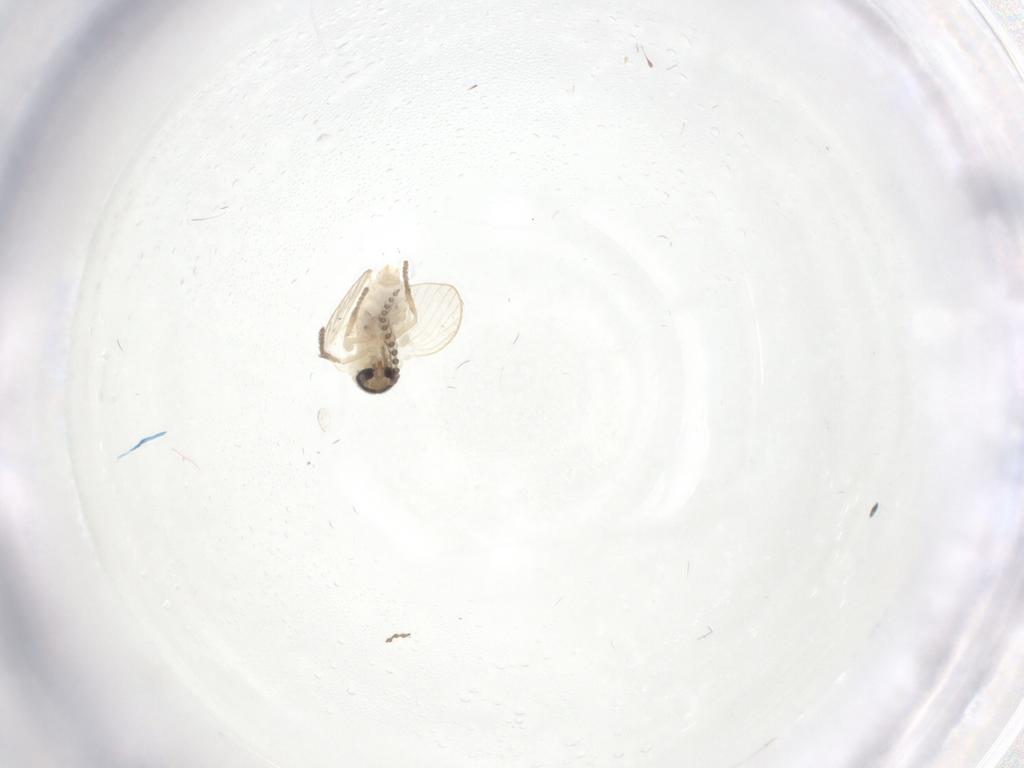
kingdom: Animalia
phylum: Arthropoda
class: Insecta
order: Diptera
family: Psychodidae
